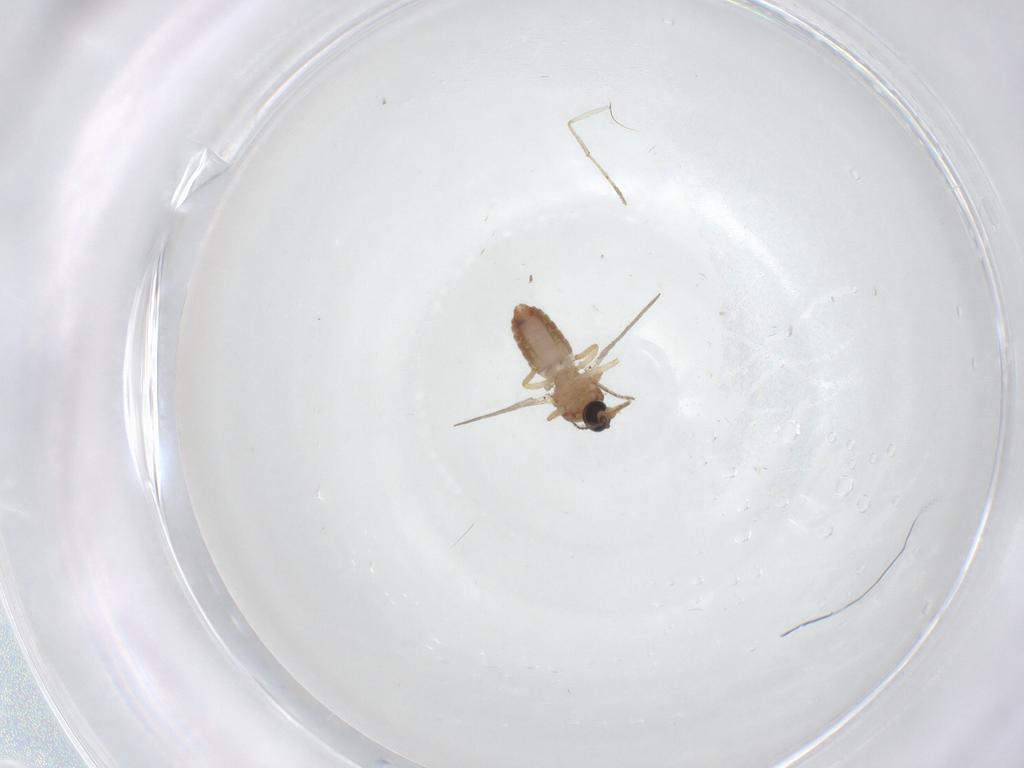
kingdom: Animalia
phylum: Arthropoda
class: Insecta
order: Diptera
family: Ceratopogonidae
